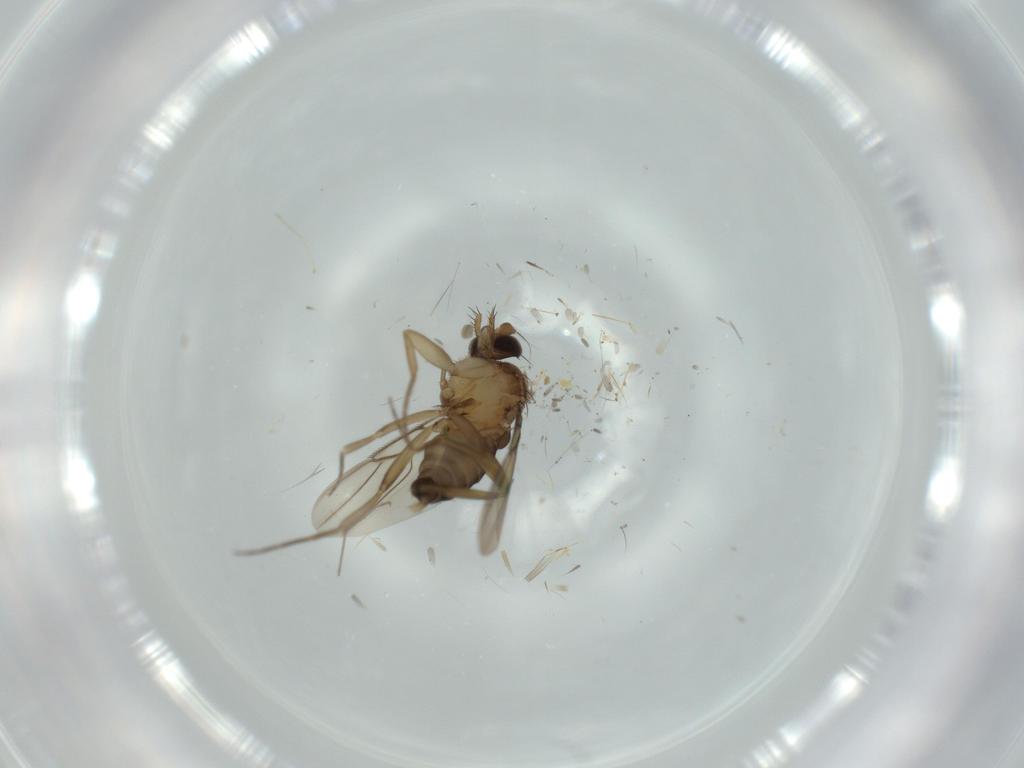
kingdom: Animalia
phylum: Arthropoda
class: Insecta
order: Diptera
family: Phoridae
